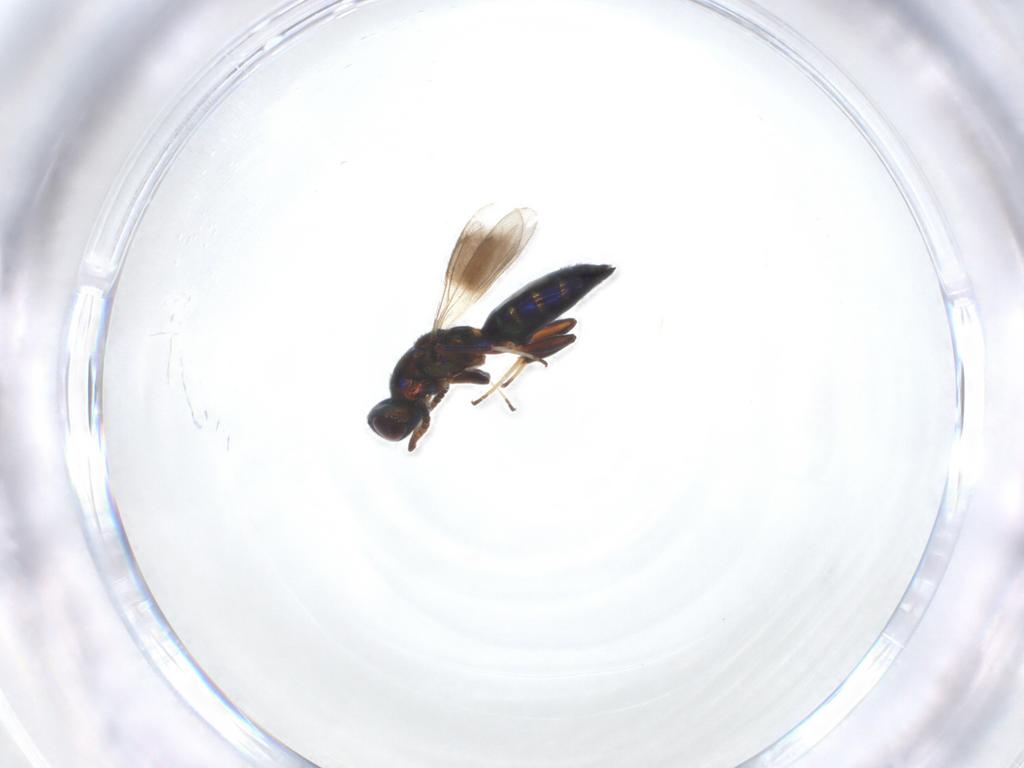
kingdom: Animalia
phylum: Arthropoda
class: Insecta
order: Hymenoptera
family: Cleonyminae
